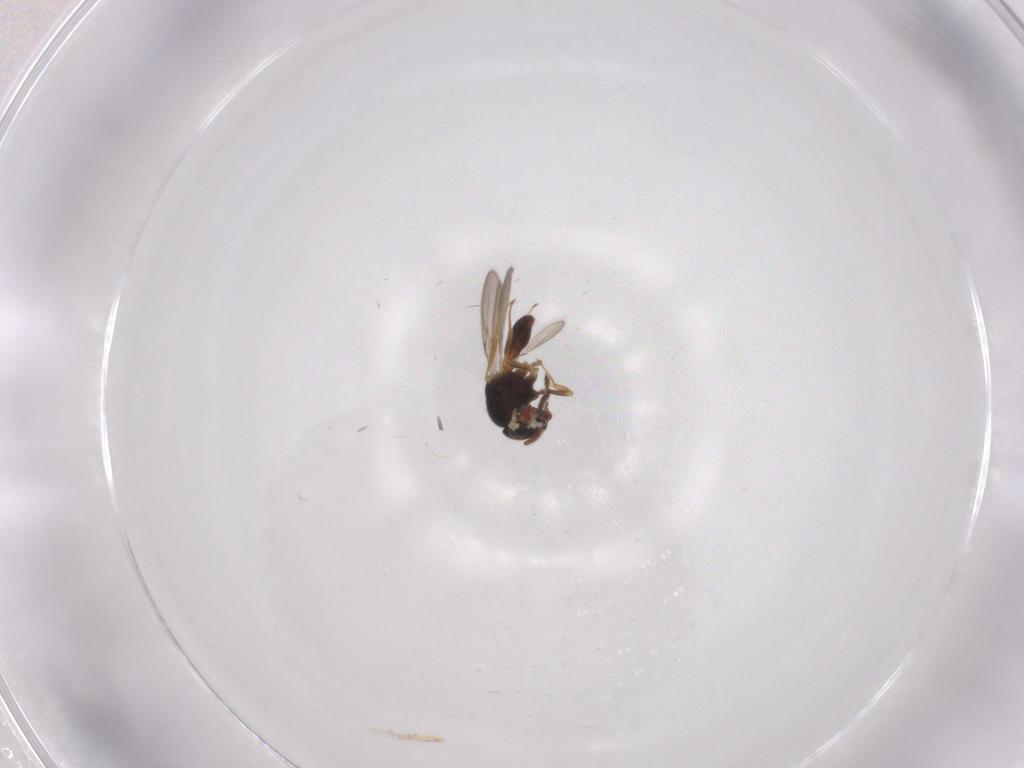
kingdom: Animalia
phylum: Arthropoda
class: Insecta
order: Hymenoptera
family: Scelionidae
